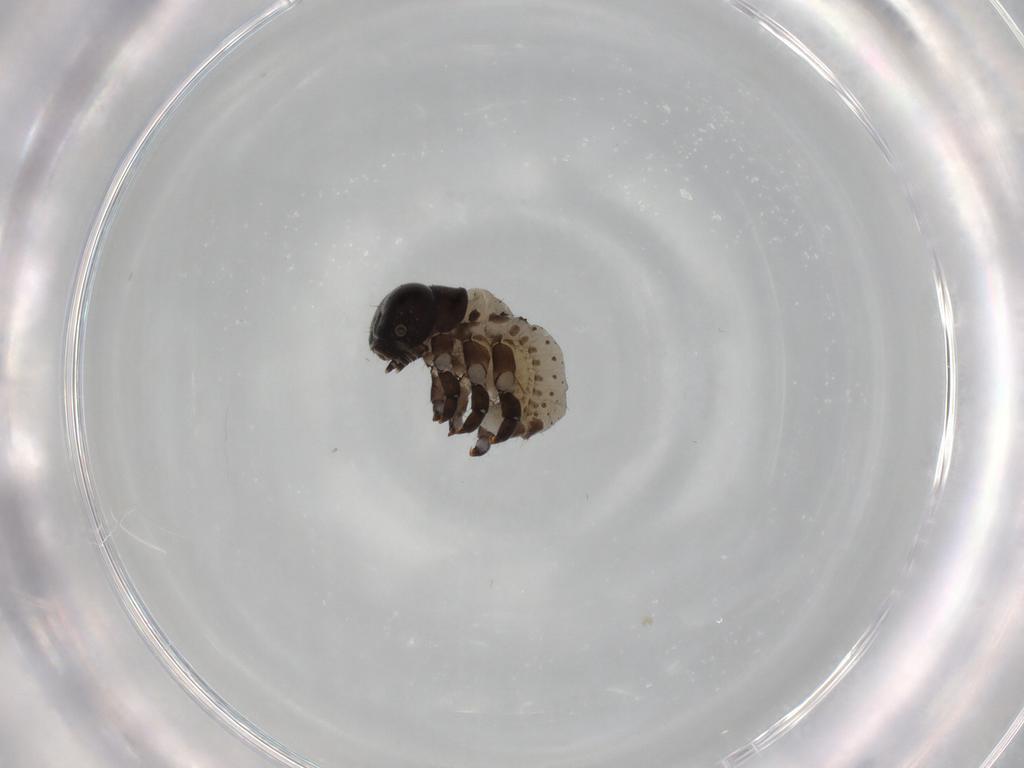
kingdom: Animalia
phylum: Arthropoda
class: Insecta
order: Coleoptera
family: Chrysomelidae
